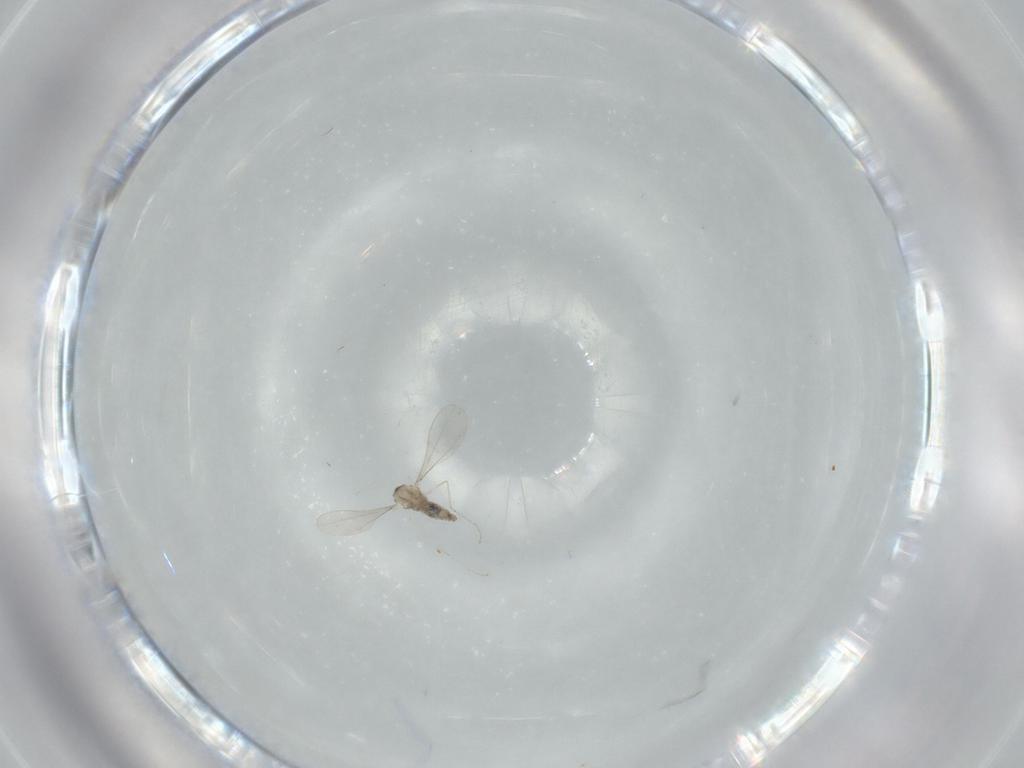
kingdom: Animalia
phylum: Arthropoda
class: Insecta
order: Diptera
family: Cecidomyiidae
